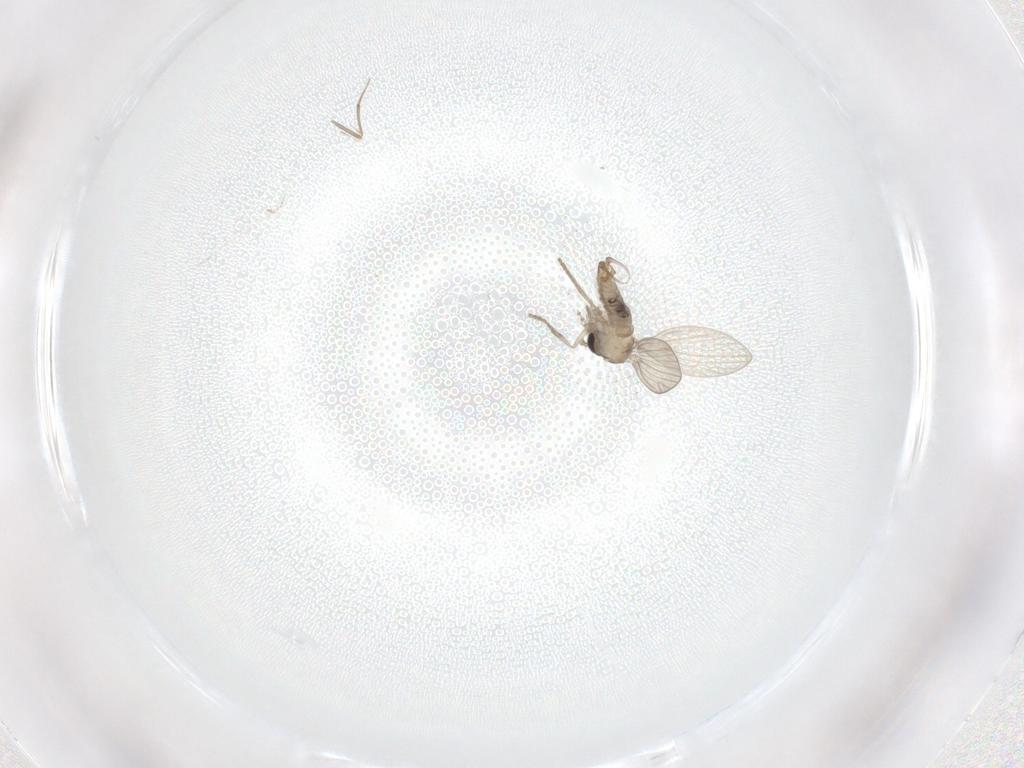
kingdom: Animalia
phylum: Arthropoda
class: Insecta
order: Diptera
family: Psychodidae
